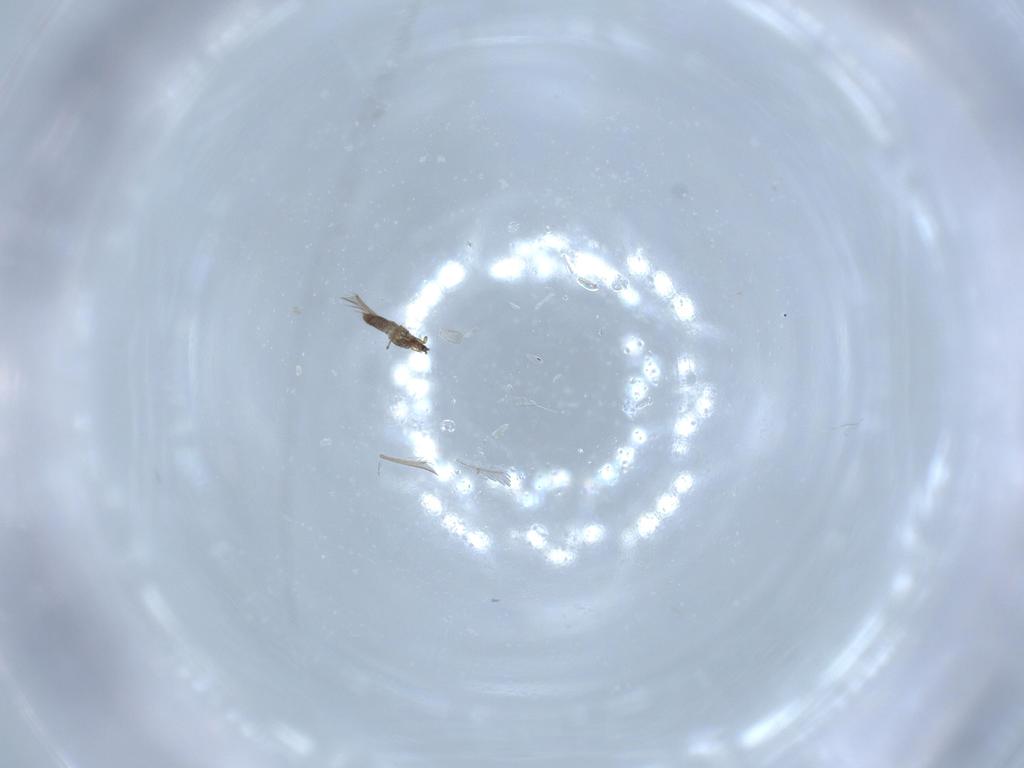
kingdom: Animalia
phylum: Arthropoda
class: Insecta
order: Thysanoptera
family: Thripidae
